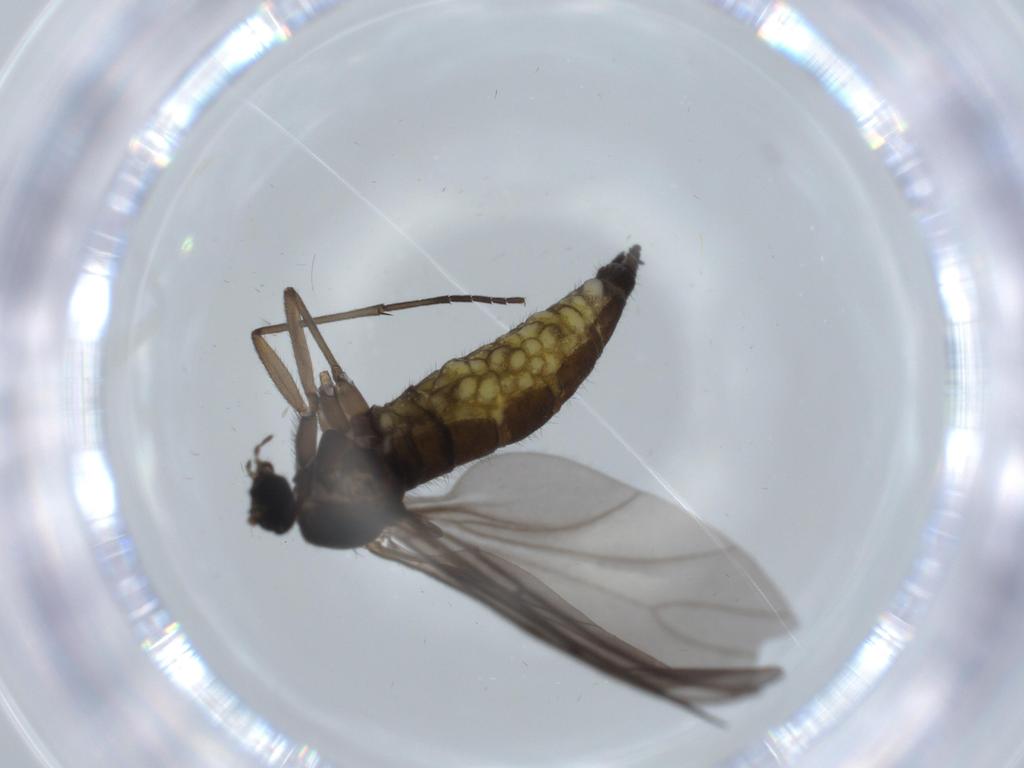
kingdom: Animalia
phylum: Arthropoda
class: Insecta
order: Diptera
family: Sciaridae
